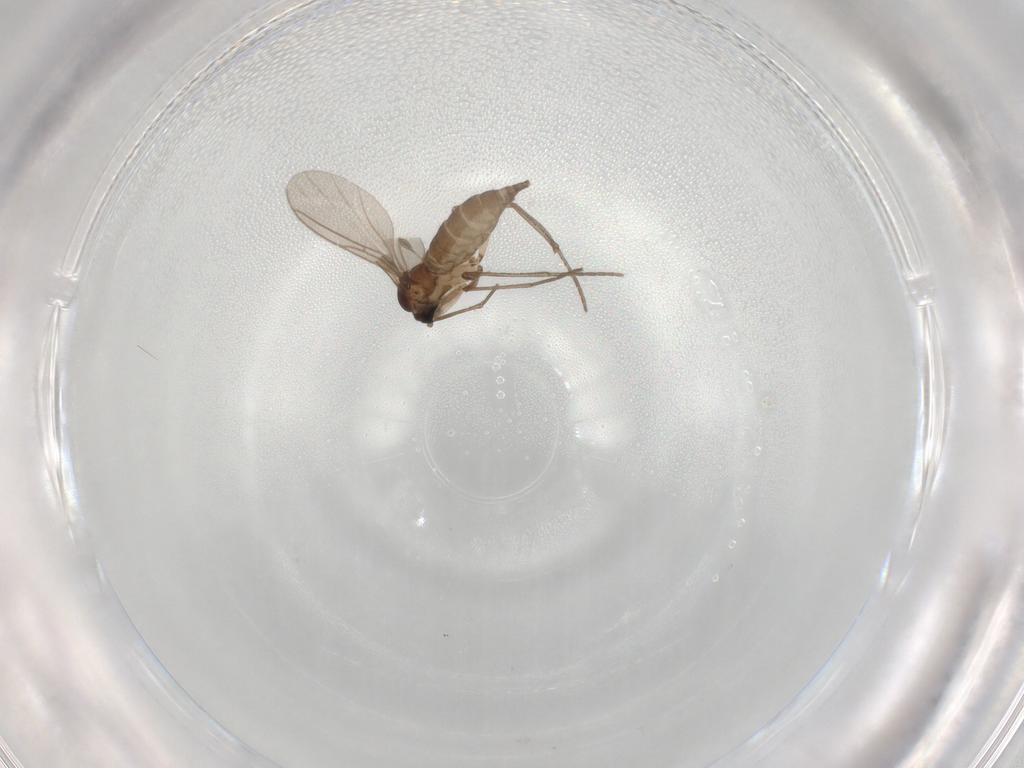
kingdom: Animalia
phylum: Arthropoda
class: Insecta
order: Diptera
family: Sciaridae
